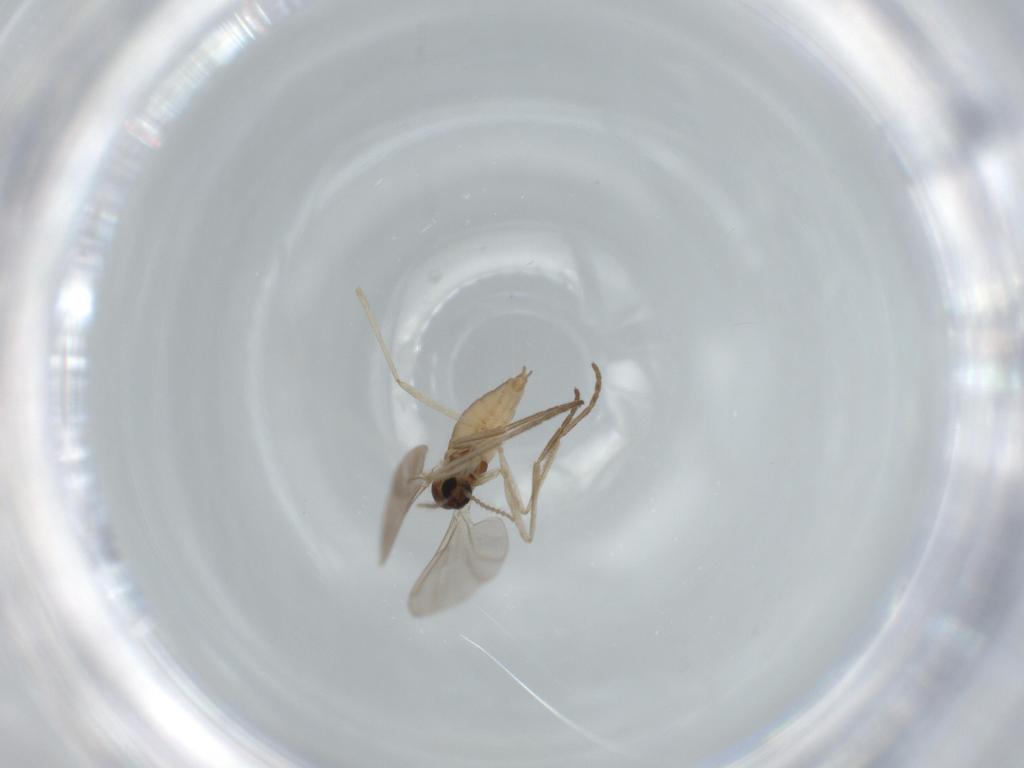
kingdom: Animalia
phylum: Arthropoda
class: Insecta
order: Diptera
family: Cecidomyiidae
